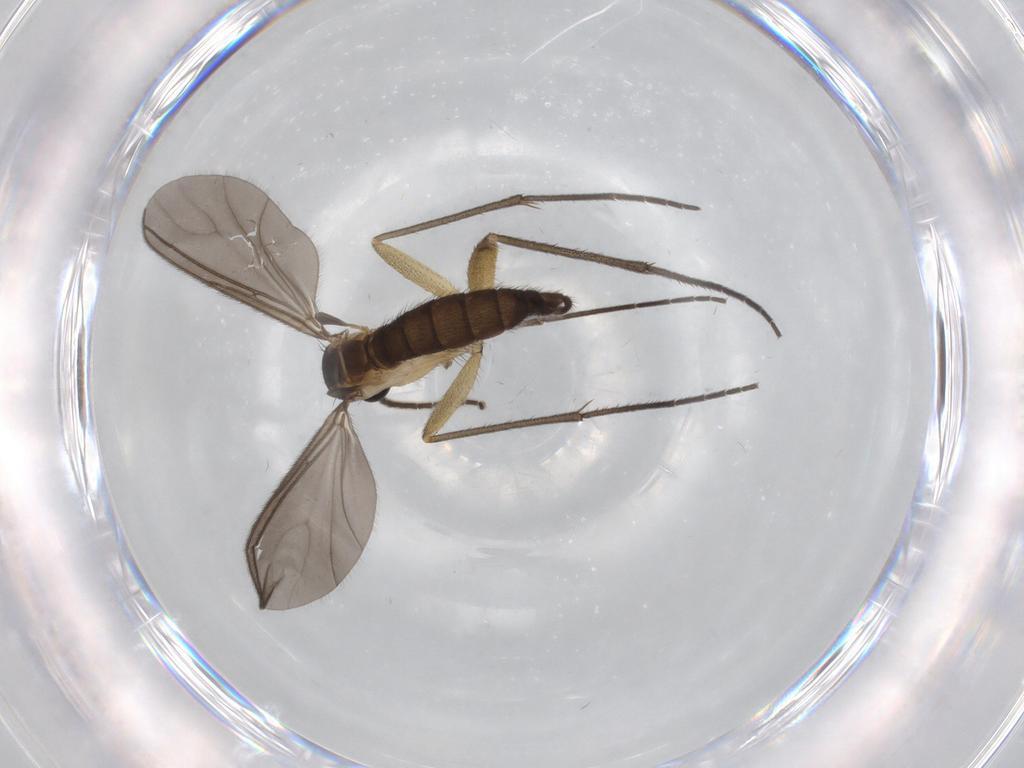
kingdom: Animalia
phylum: Arthropoda
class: Insecta
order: Diptera
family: Sciaridae
